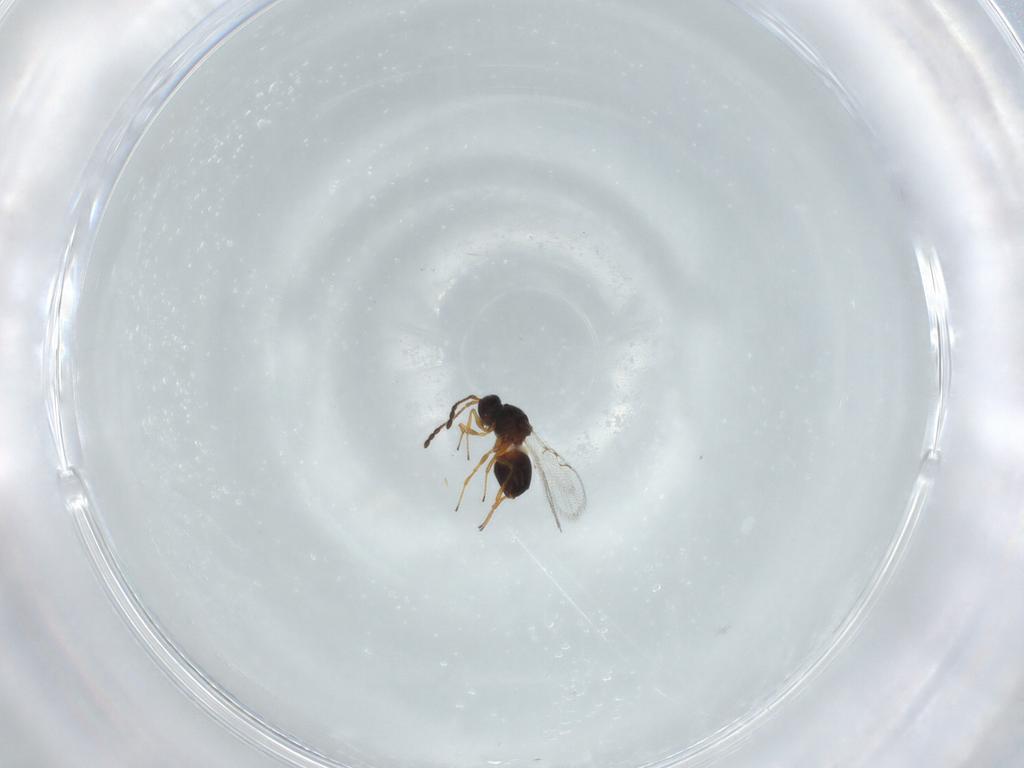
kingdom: Animalia
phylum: Arthropoda
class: Insecta
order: Hymenoptera
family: Figitidae
